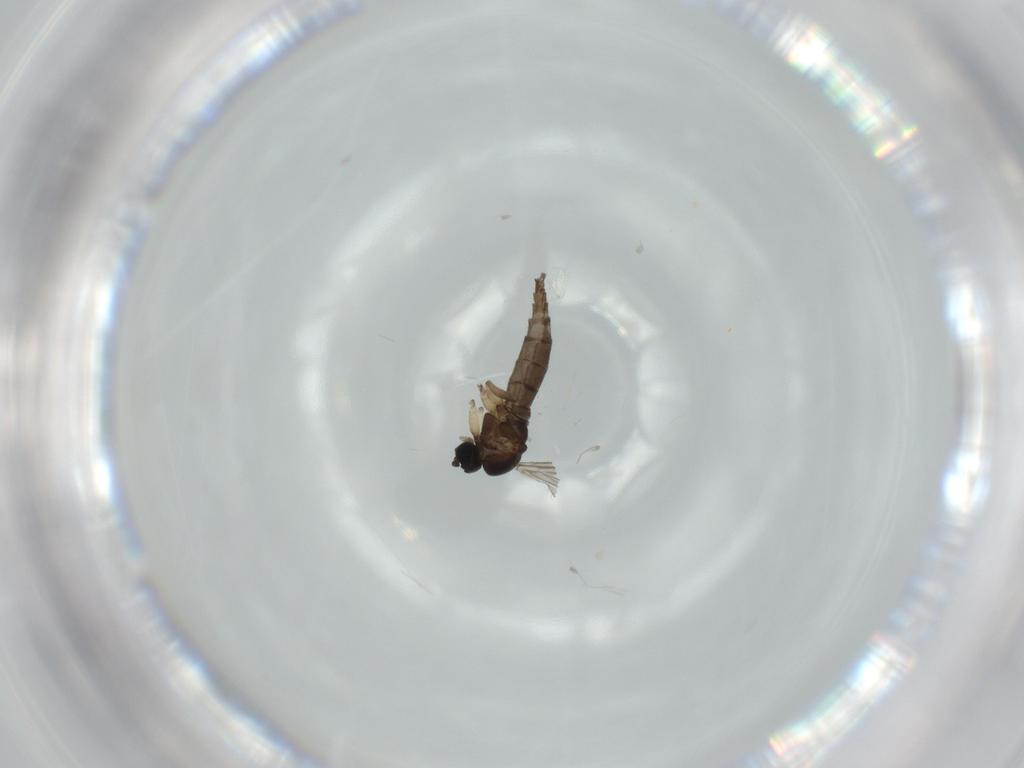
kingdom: Animalia
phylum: Arthropoda
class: Insecta
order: Diptera
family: Sciaridae
